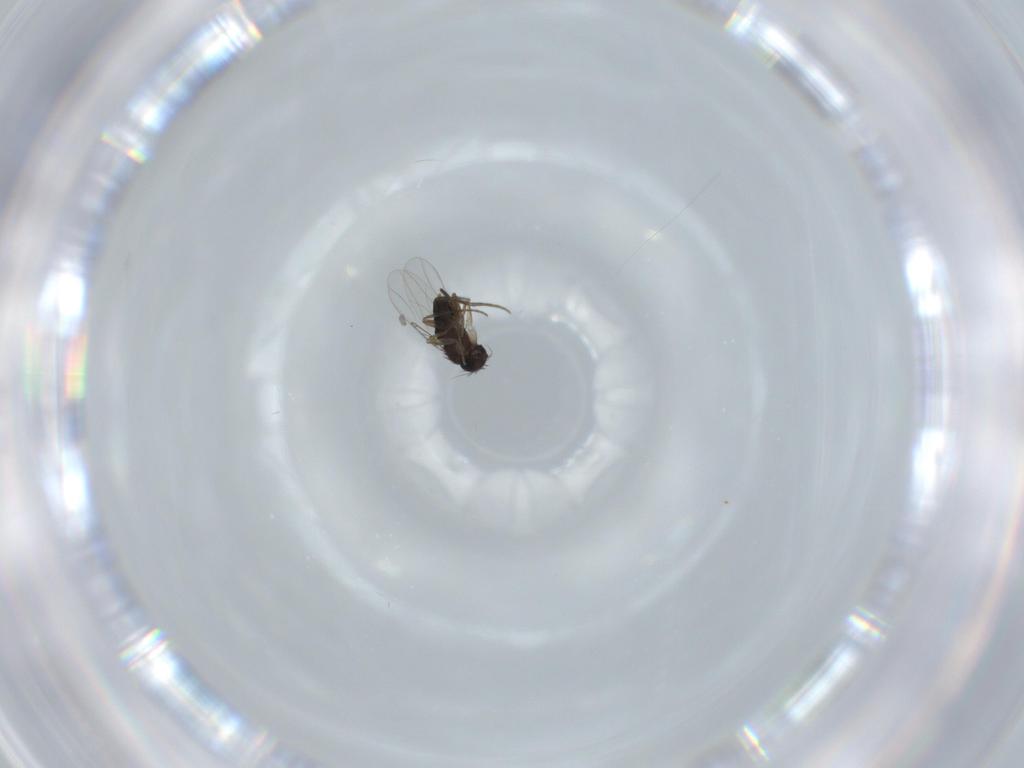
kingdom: Animalia
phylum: Arthropoda
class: Insecta
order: Diptera
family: Phoridae
